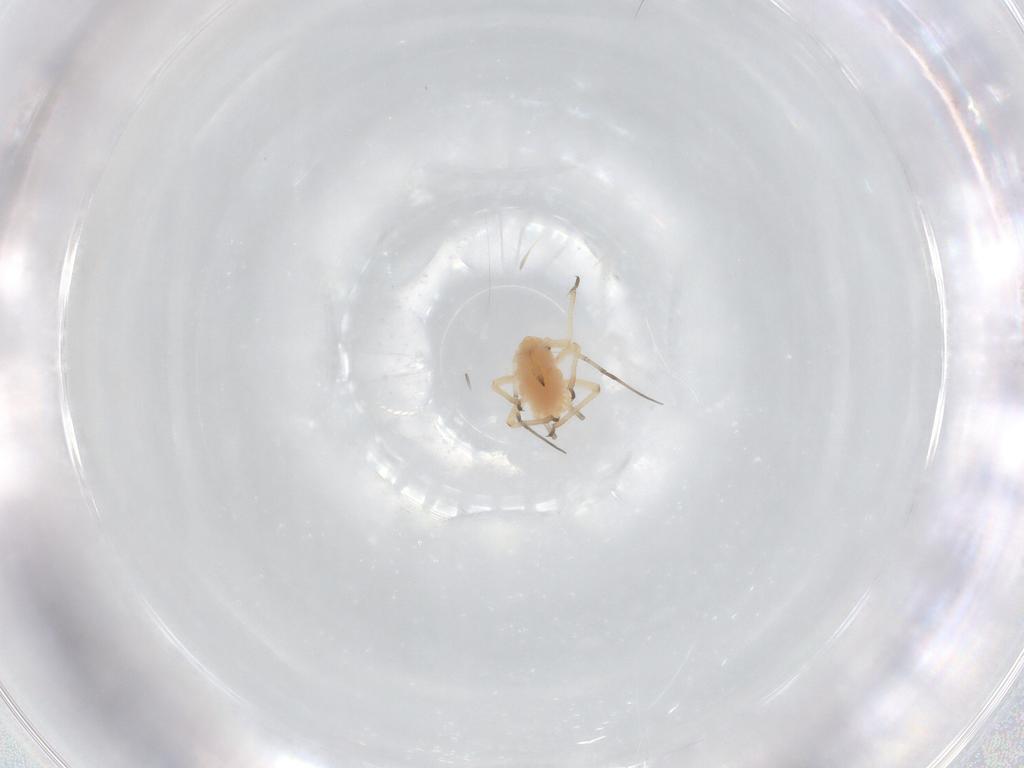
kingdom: Animalia
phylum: Arthropoda
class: Insecta
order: Hemiptera
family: Aphididae
